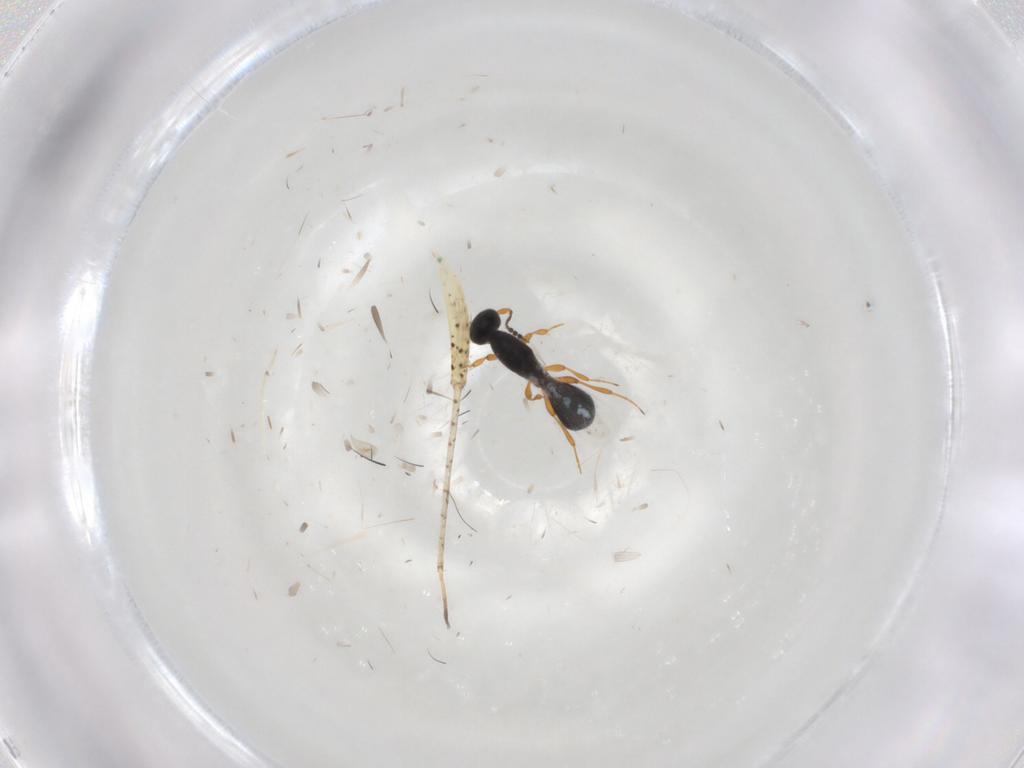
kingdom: Animalia
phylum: Arthropoda
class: Insecta
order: Hymenoptera
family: Platygastridae
